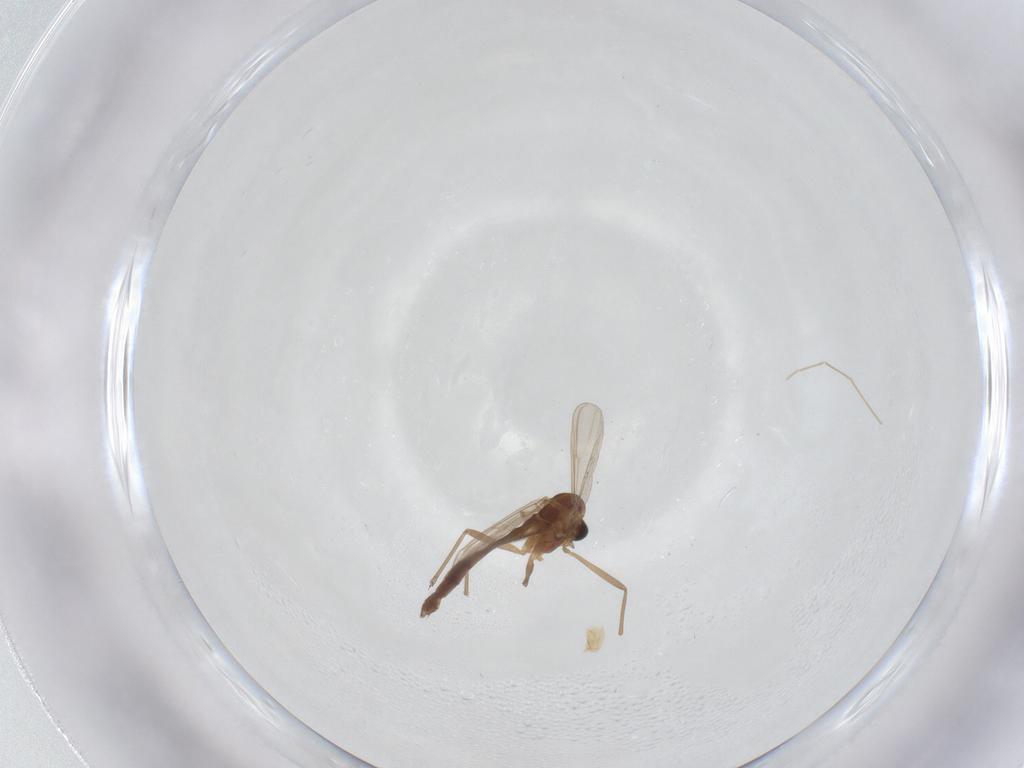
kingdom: Animalia
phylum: Arthropoda
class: Insecta
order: Diptera
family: Chironomidae
